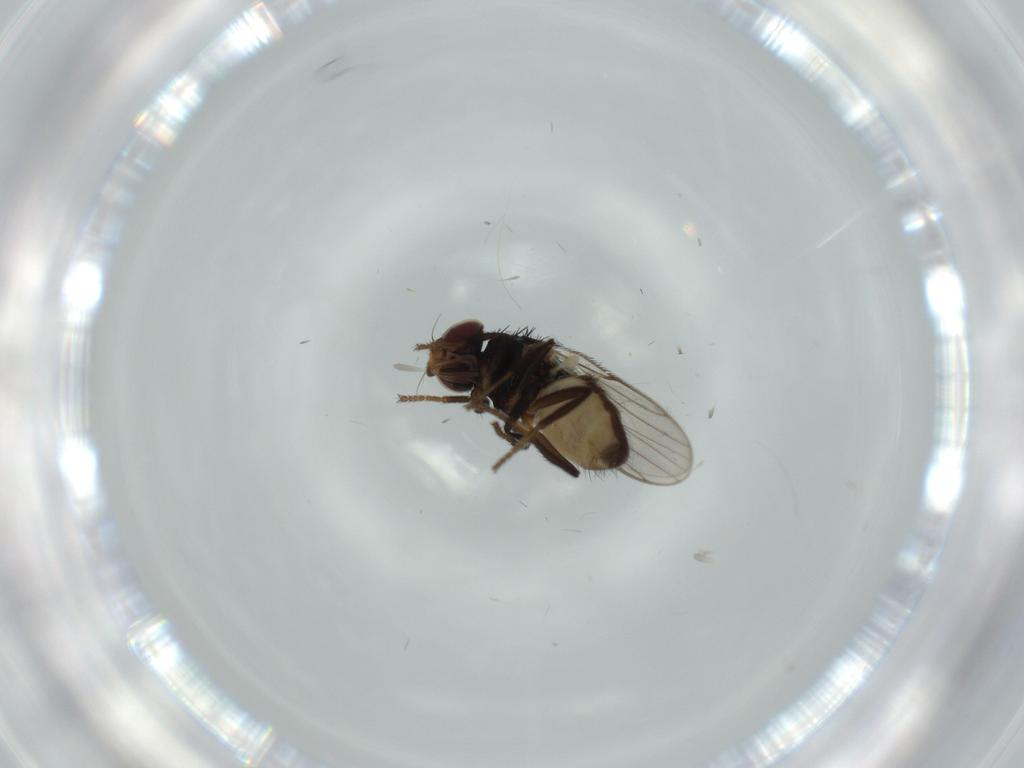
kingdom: Animalia
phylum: Arthropoda
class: Insecta
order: Diptera
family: Chloropidae
